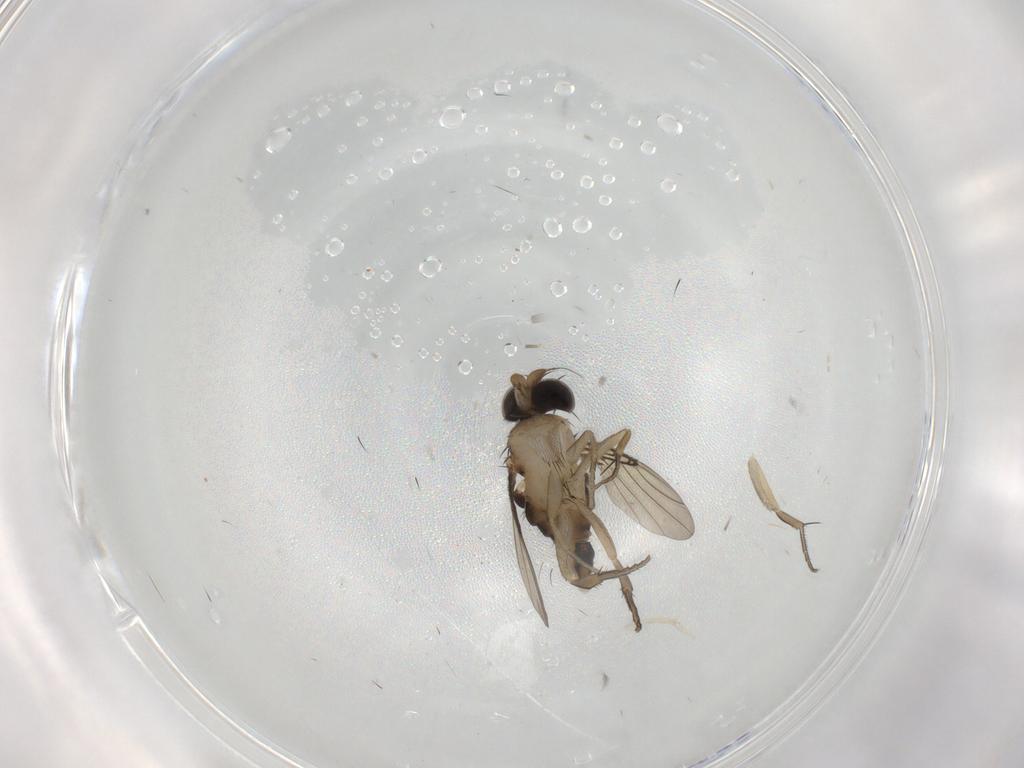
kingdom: Animalia
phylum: Arthropoda
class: Insecta
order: Diptera
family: Phoridae
